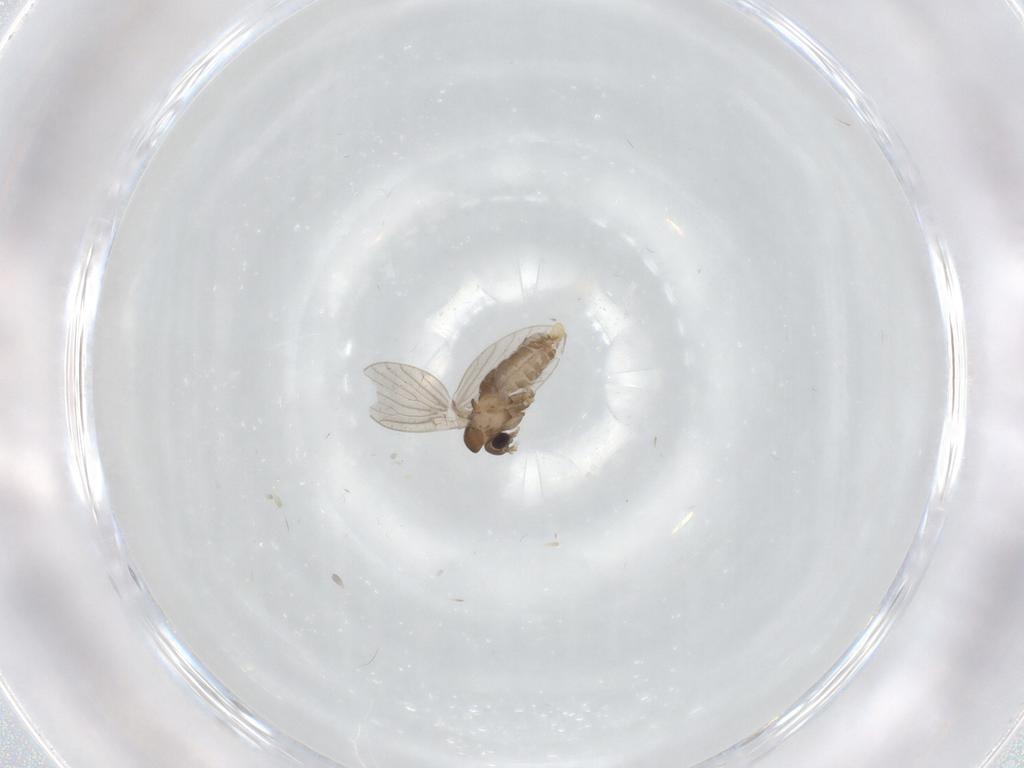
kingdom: Animalia
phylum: Arthropoda
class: Insecta
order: Diptera
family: Psychodidae
